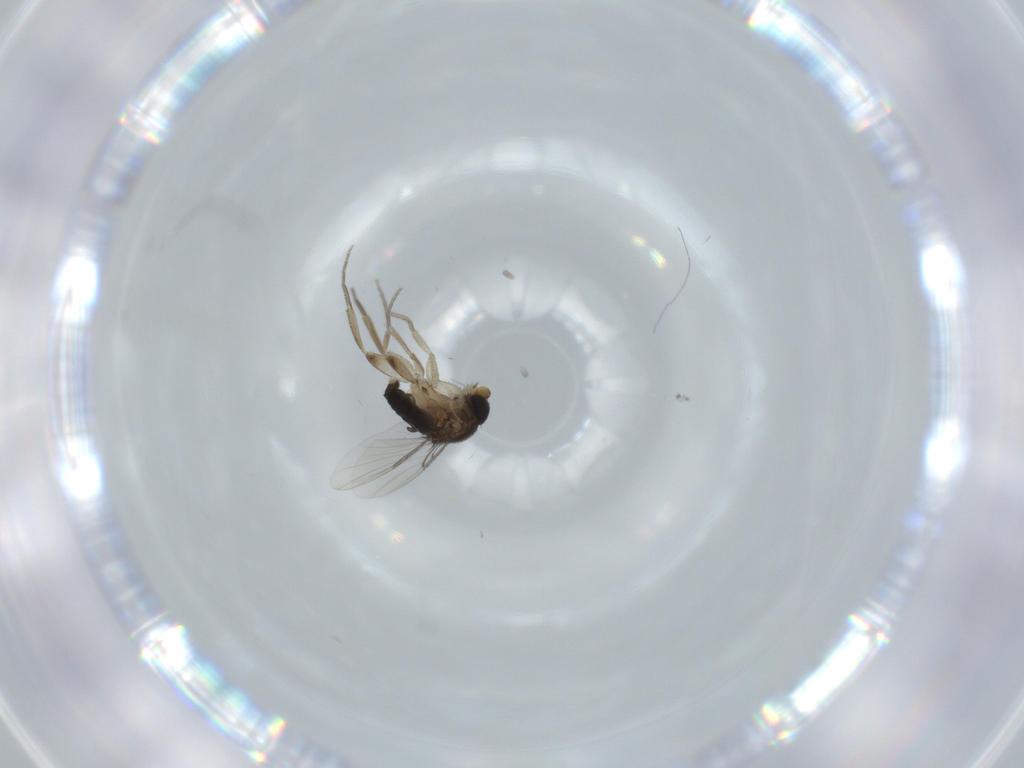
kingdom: Animalia
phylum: Arthropoda
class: Insecta
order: Diptera
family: Phoridae
